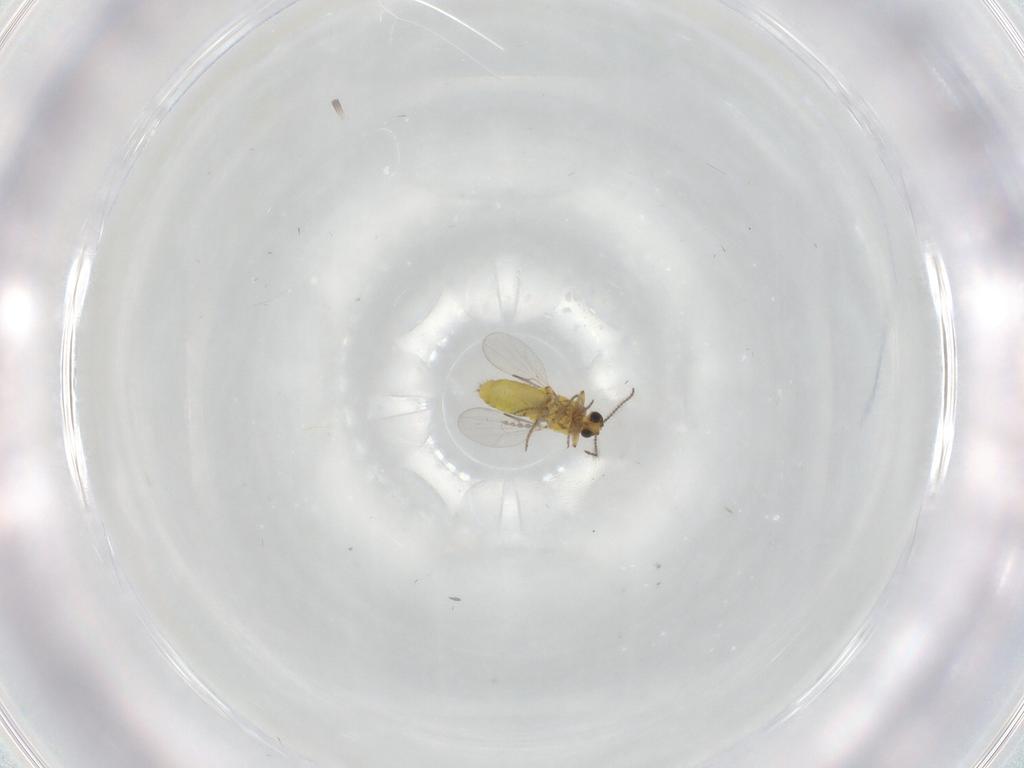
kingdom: Animalia
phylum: Arthropoda
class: Insecta
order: Diptera
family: Ceratopogonidae
